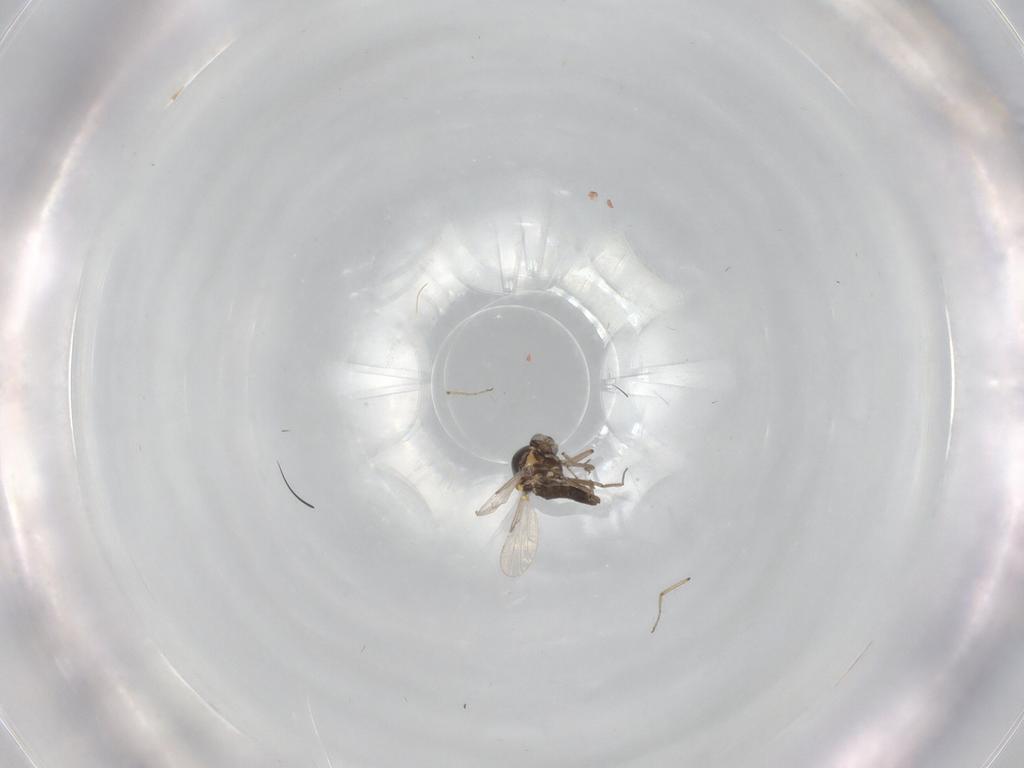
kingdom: Animalia
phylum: Arthropoda
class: Insecta
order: Diptera
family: Ceratopogonidae
